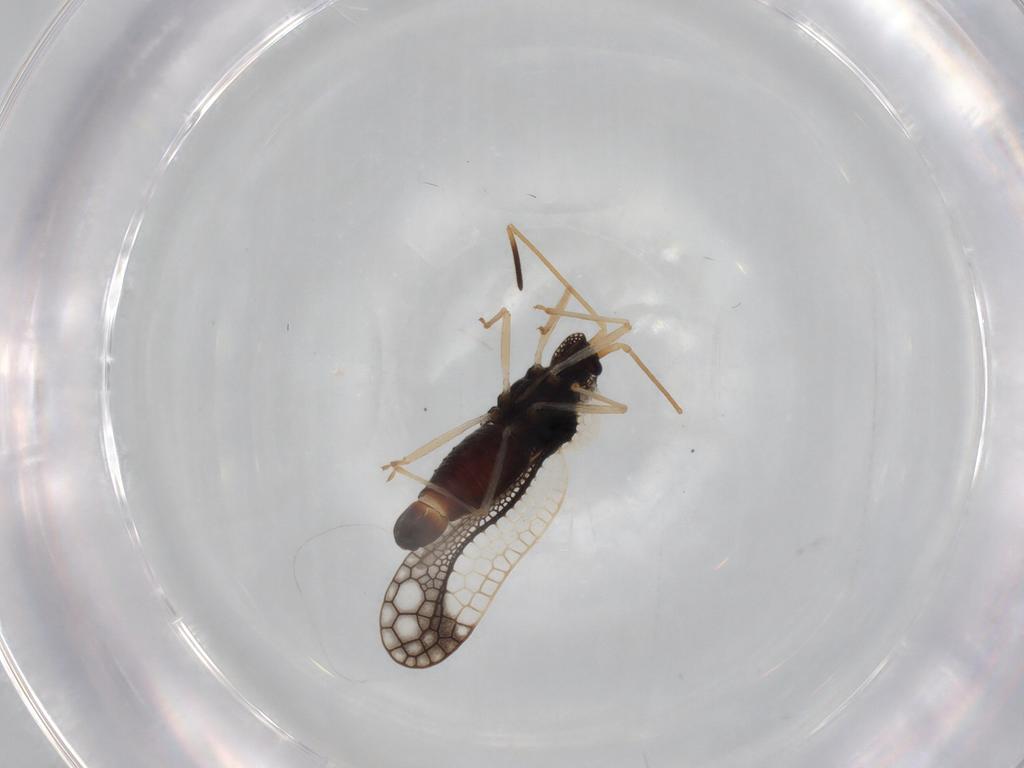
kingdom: Animalia
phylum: Arthropoda
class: Insecta
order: Hemiptera
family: Tingidae
